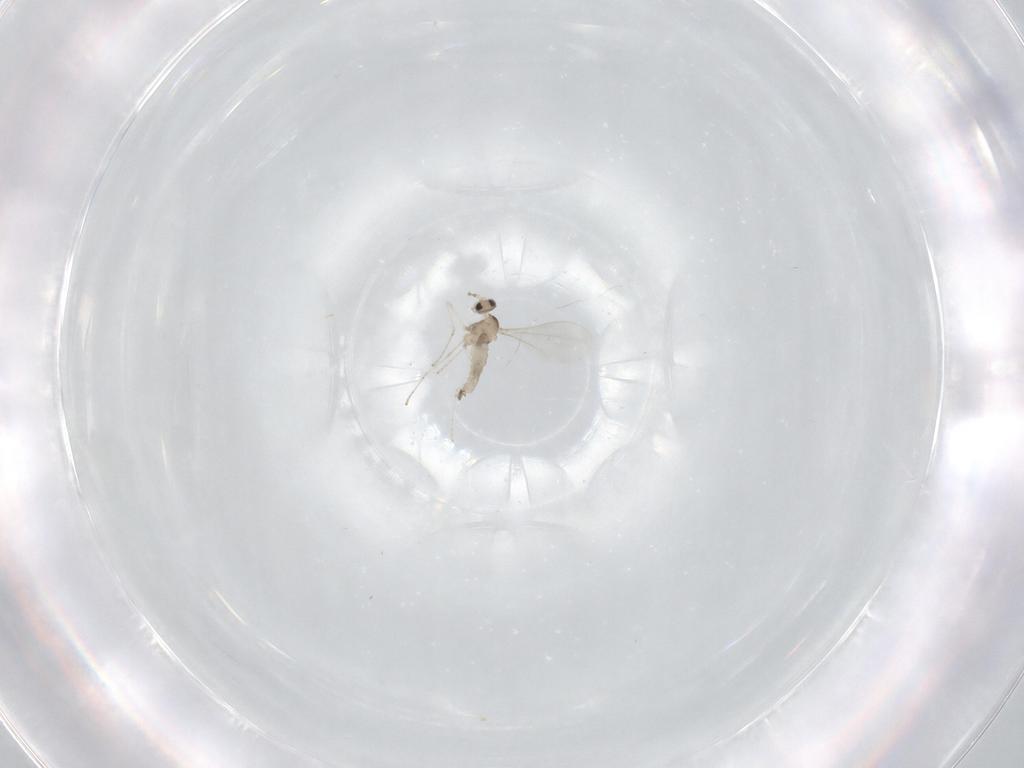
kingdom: Animalia
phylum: Arthropoda
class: Insecta
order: Diptera
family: Cecidomyiidae
